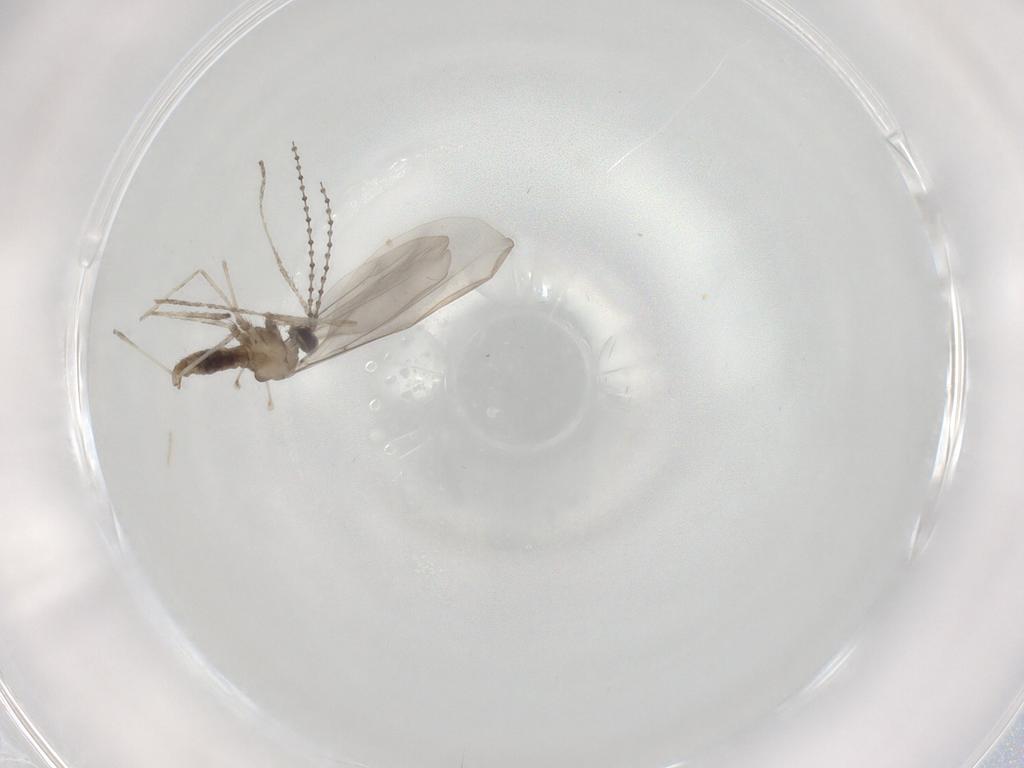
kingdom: Animalia
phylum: Arthropoda
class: Insecta
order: Diptera
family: Cecidomyiidae
